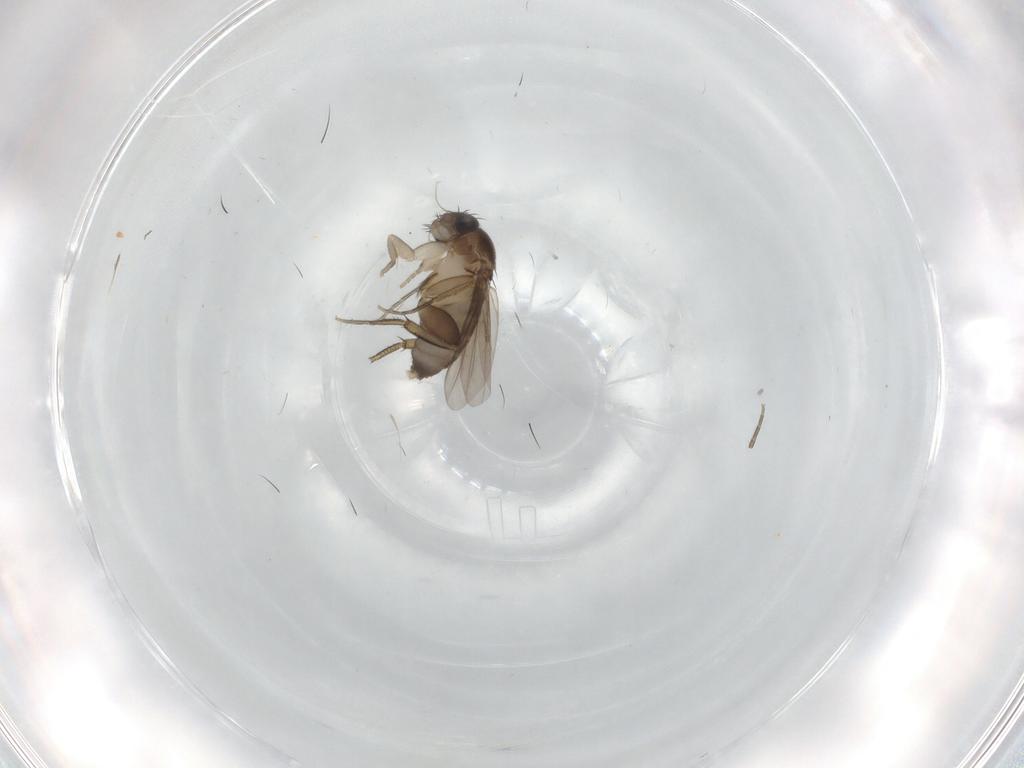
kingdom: Animalia
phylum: Arthropoda
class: Insecta
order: Diptera
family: Phoridae
